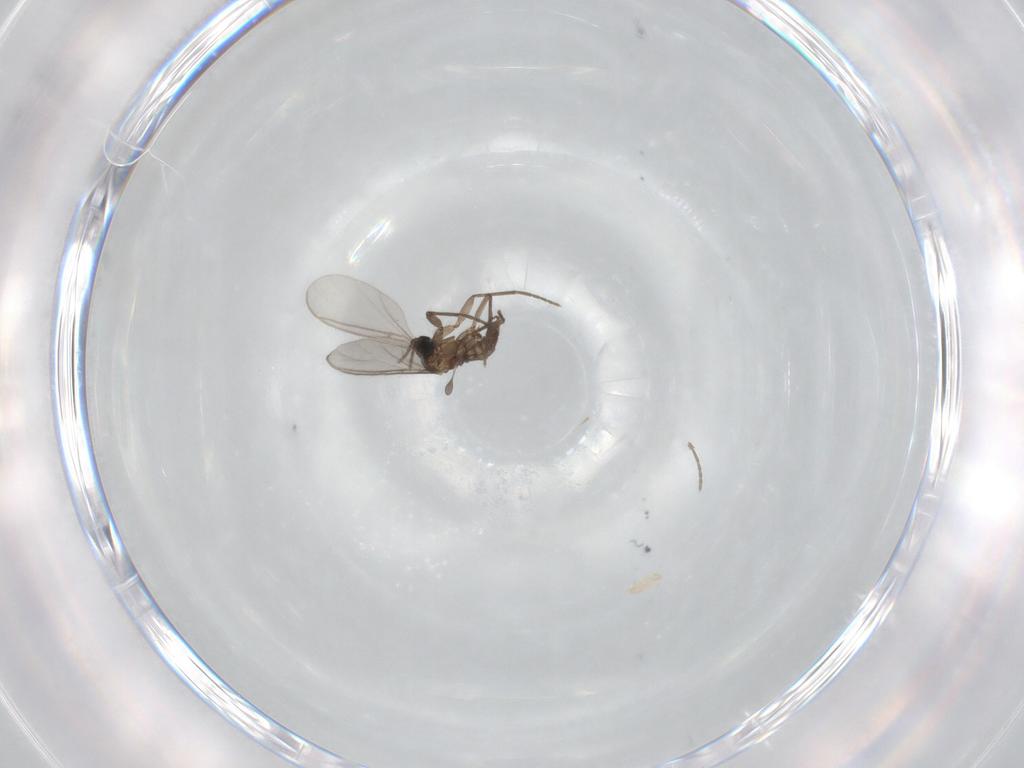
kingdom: Animalia
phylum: Arthropoda
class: Insecta
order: Diptera
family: Sciaridae
